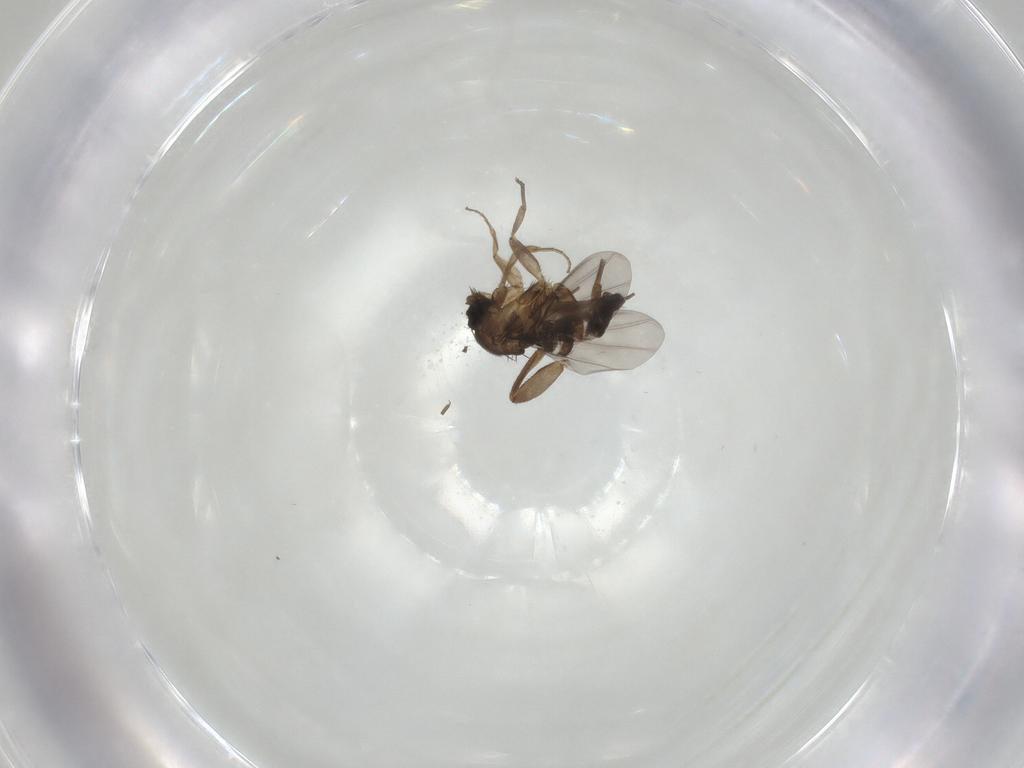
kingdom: Animalia
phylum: Arthropoda
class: Insecta
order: Diptera
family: Phoridae
